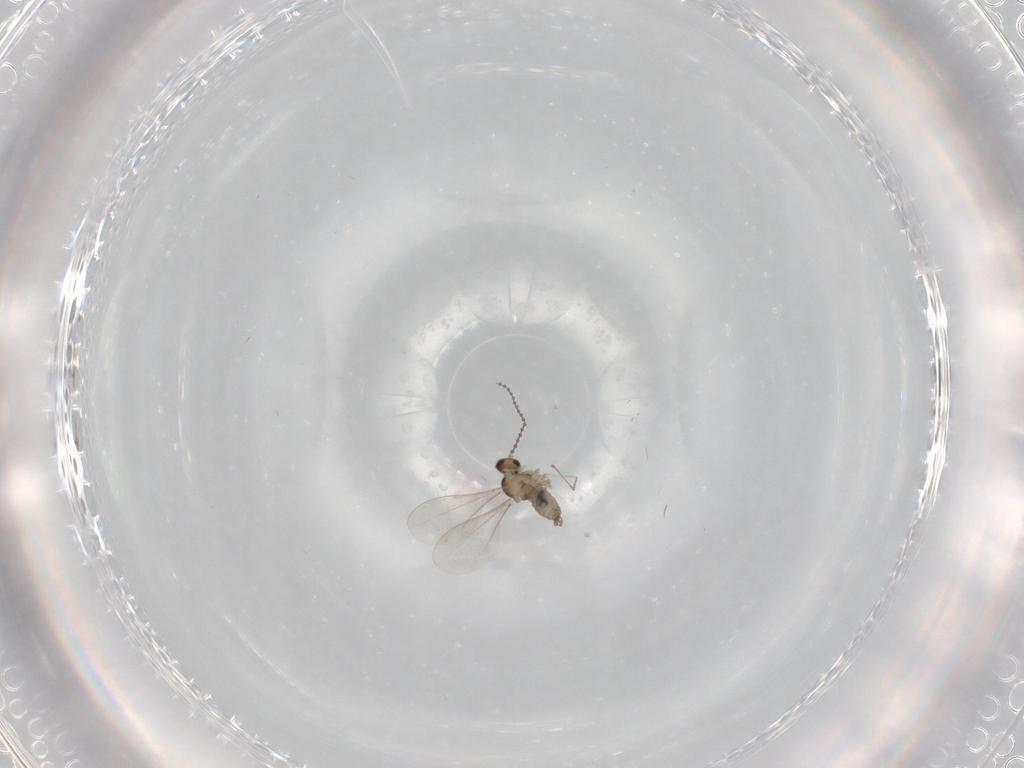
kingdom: Animalia
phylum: Arthropoda
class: Insecta
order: Diptera
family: Cecidomyiidae
